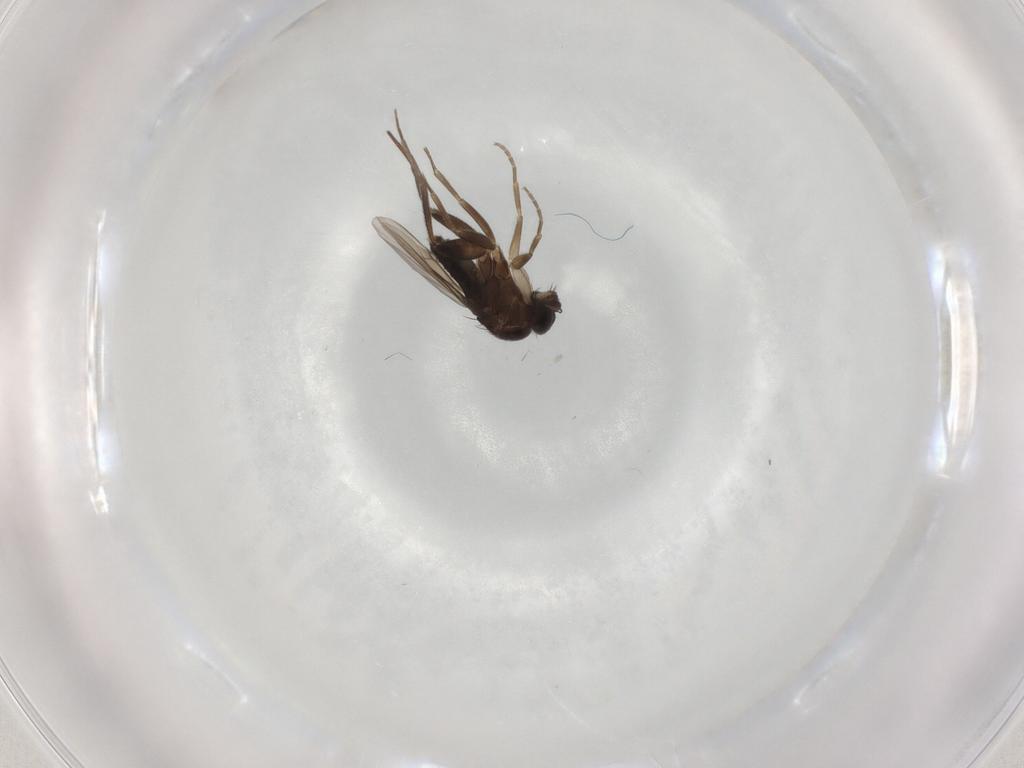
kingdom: Animalia
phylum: Arthropoda
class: Insecta
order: Diptera
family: Phoridae
